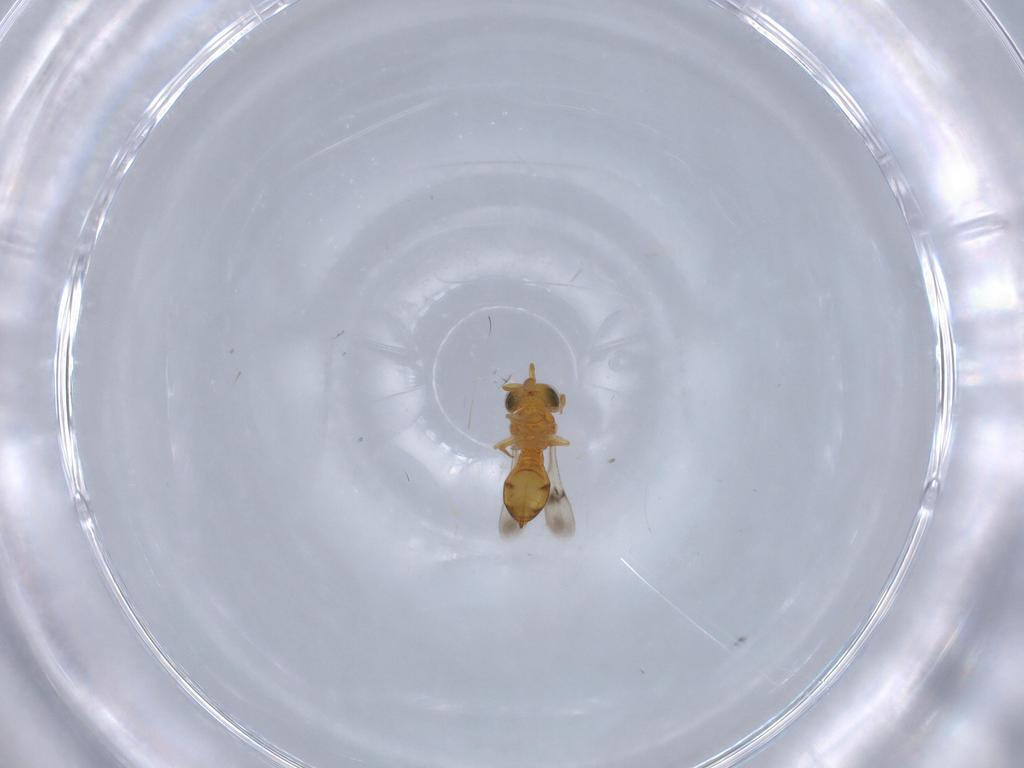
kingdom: Animalia
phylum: Arthropoda
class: Insecta
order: Hymenoptera
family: Scelionidae
